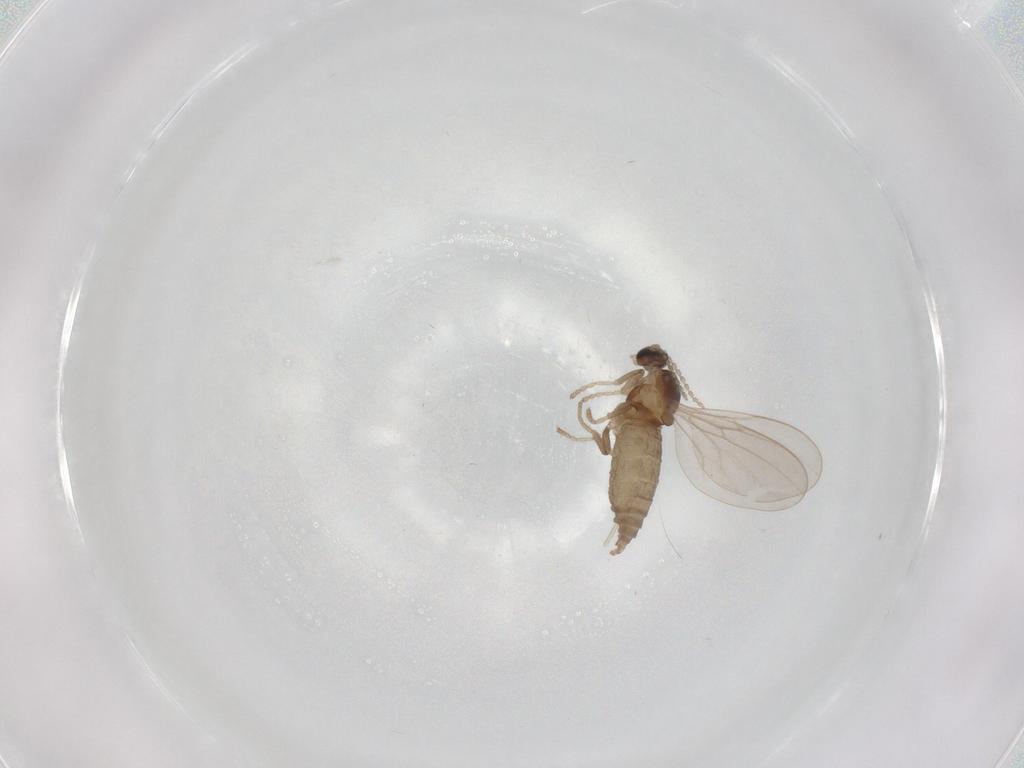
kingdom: Animalia
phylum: Arthropoda
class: Insecta
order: Diptera
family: Cecidomyiidae
